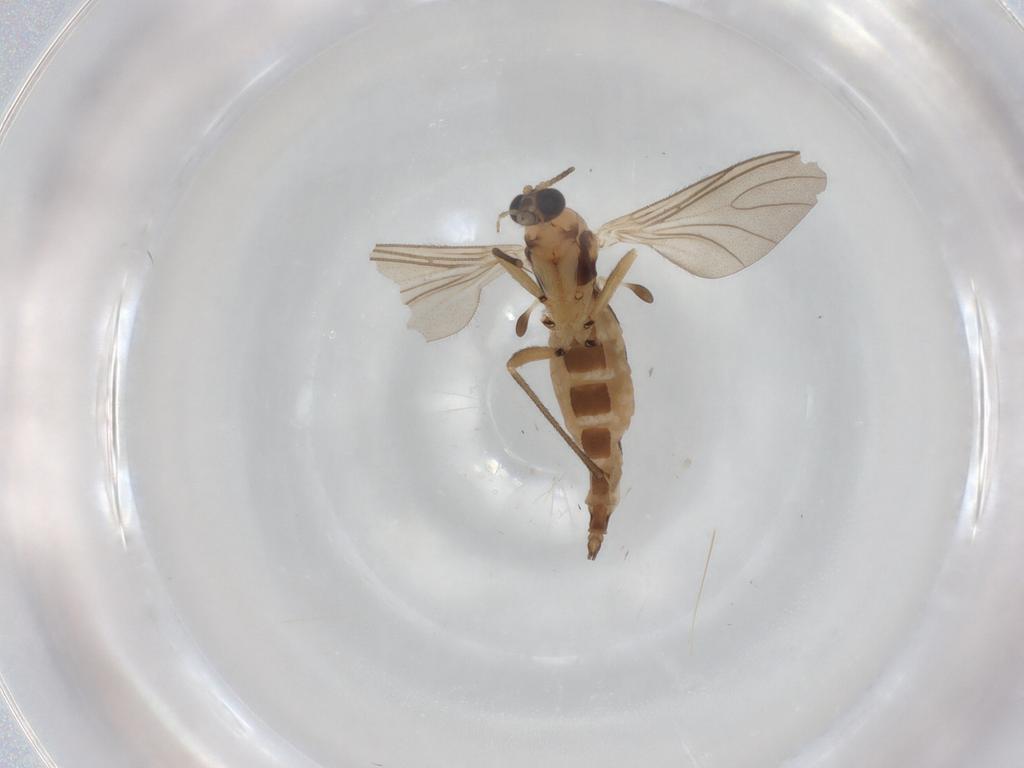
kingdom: Animalia
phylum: Arthropoda
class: Insecta
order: Diptera
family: Sciaridae
